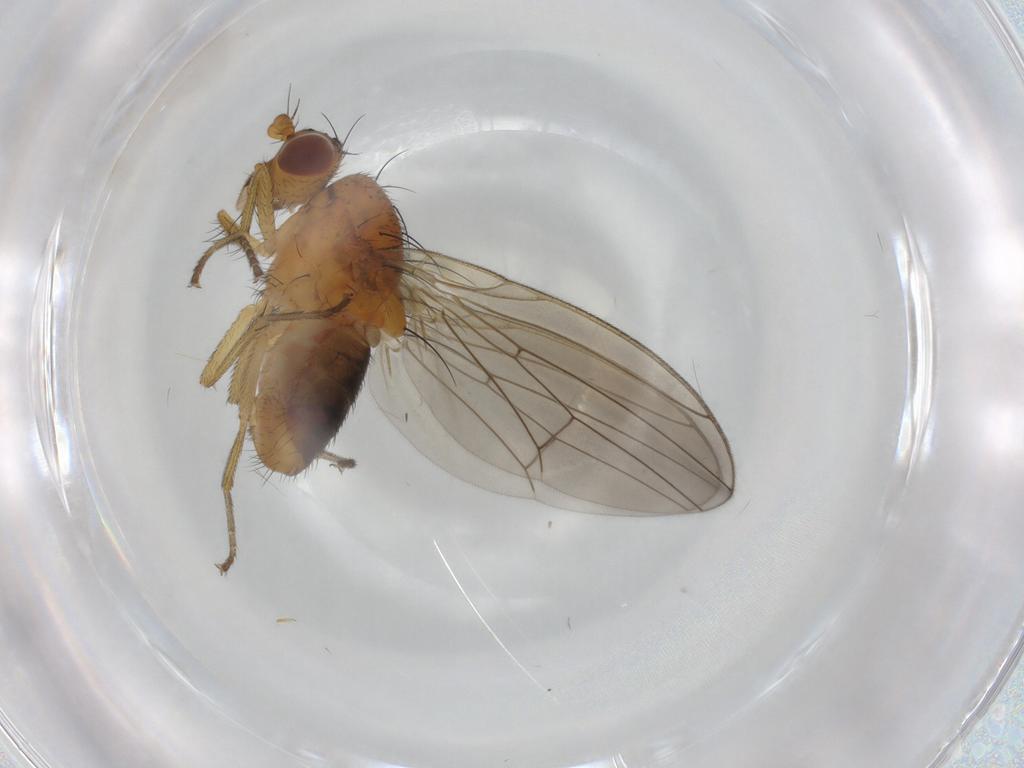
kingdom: Animalia
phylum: Arthropoda
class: Insecta
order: Diptera
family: Lauxaniidae
